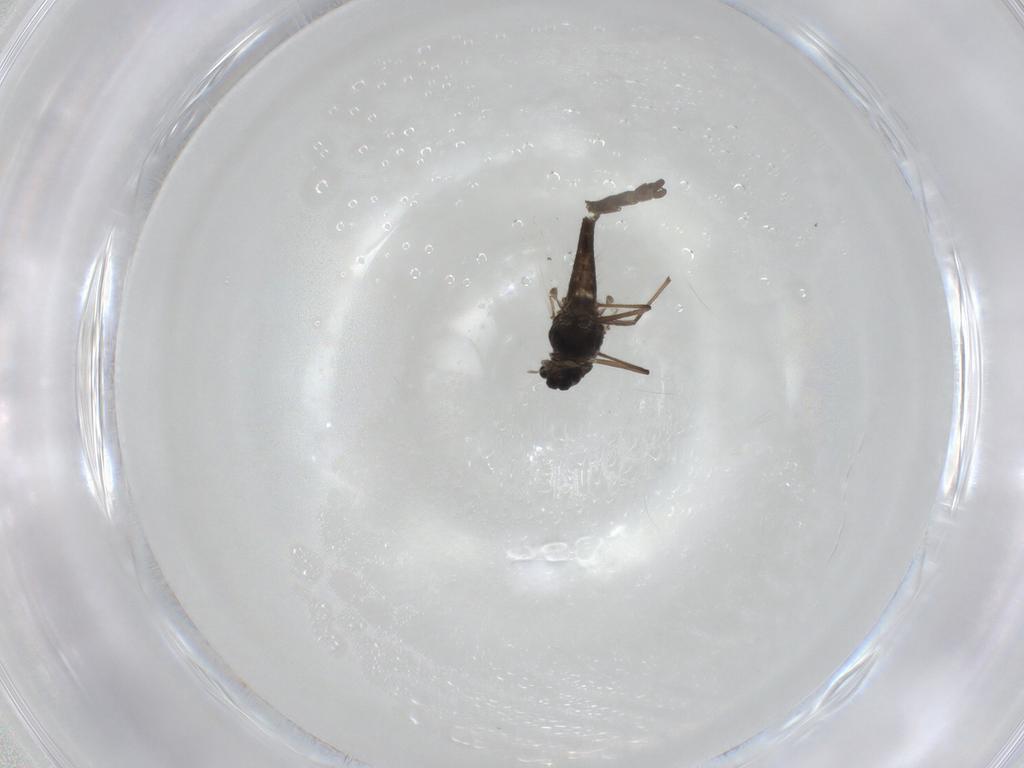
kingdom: Animalia
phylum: Arthropoda
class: Insecta
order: Diptera
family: Chironomidae
